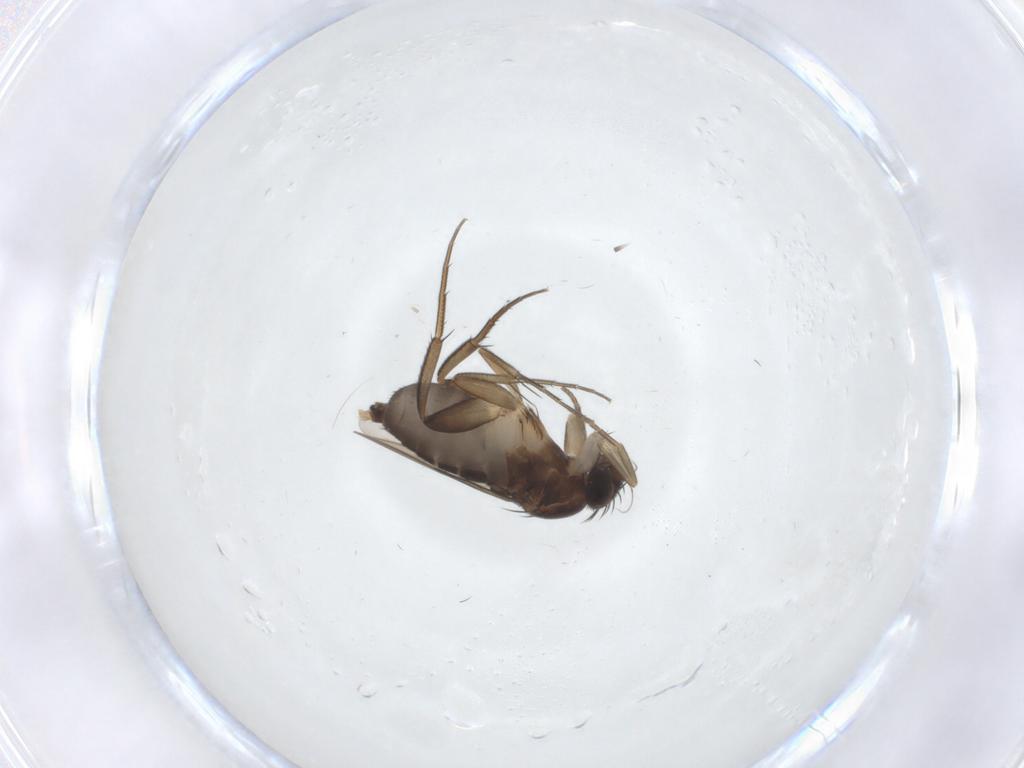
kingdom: Animalia
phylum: Arthropoda
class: Insecta
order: Diptera
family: Phoridae
